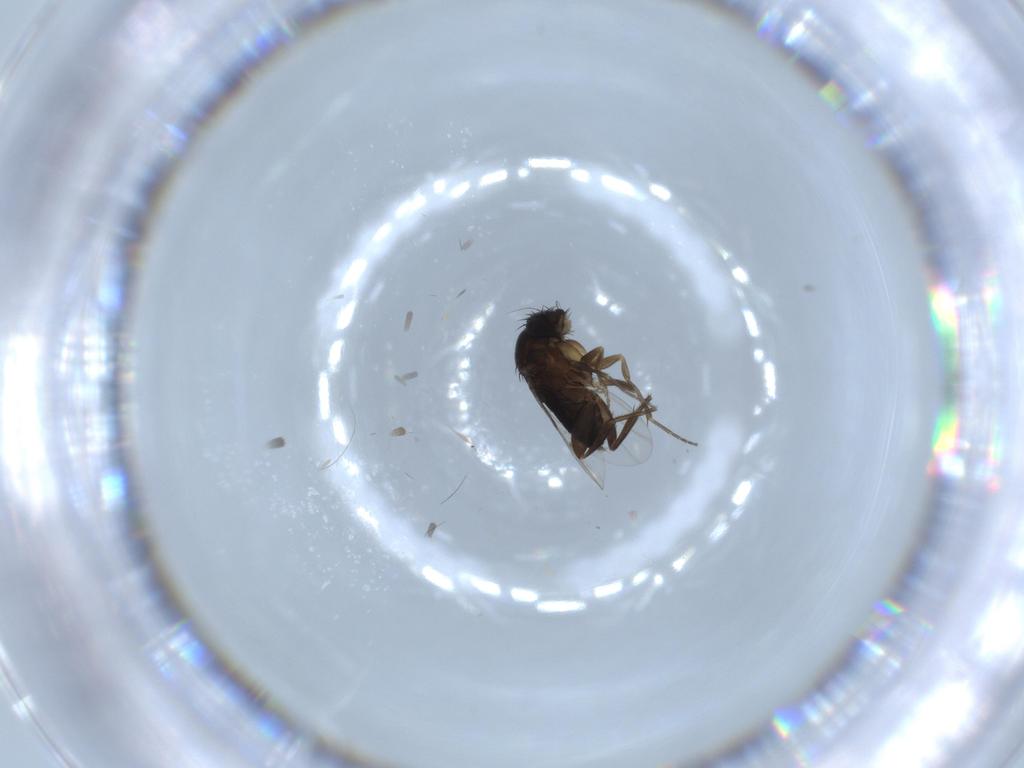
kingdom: Animalia
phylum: Arthropoda
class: Insecta
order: Diptera
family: Phoridae
